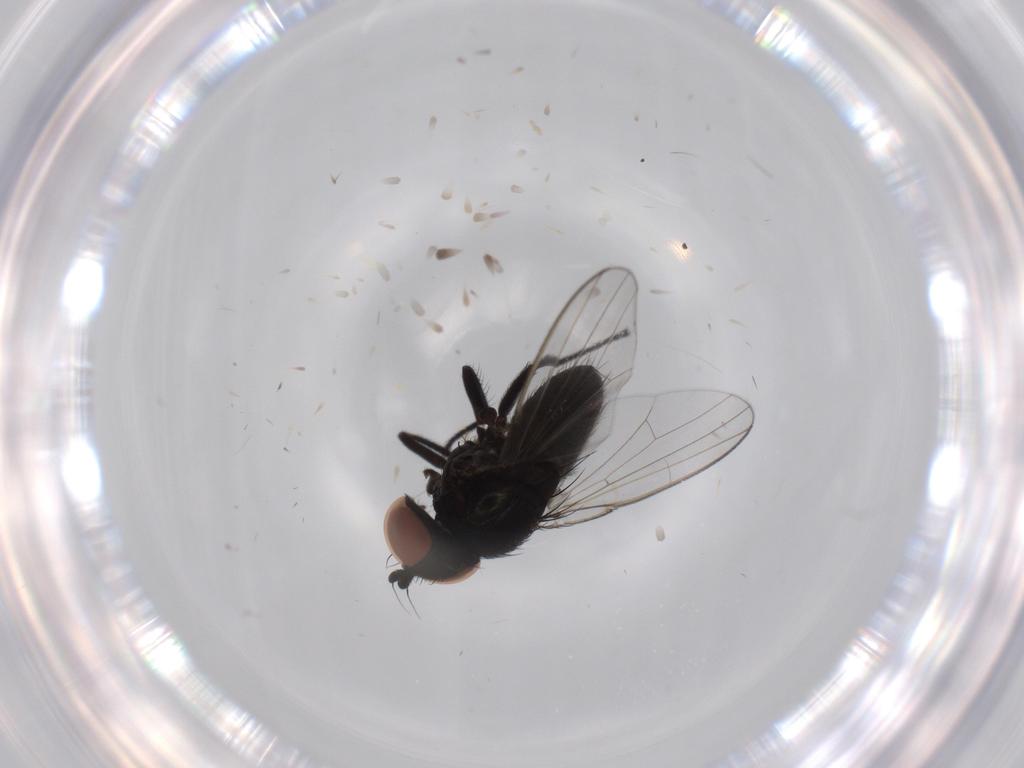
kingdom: Animalia
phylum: Arthropoda
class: Insecta
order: Diptera
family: Milichiidae
